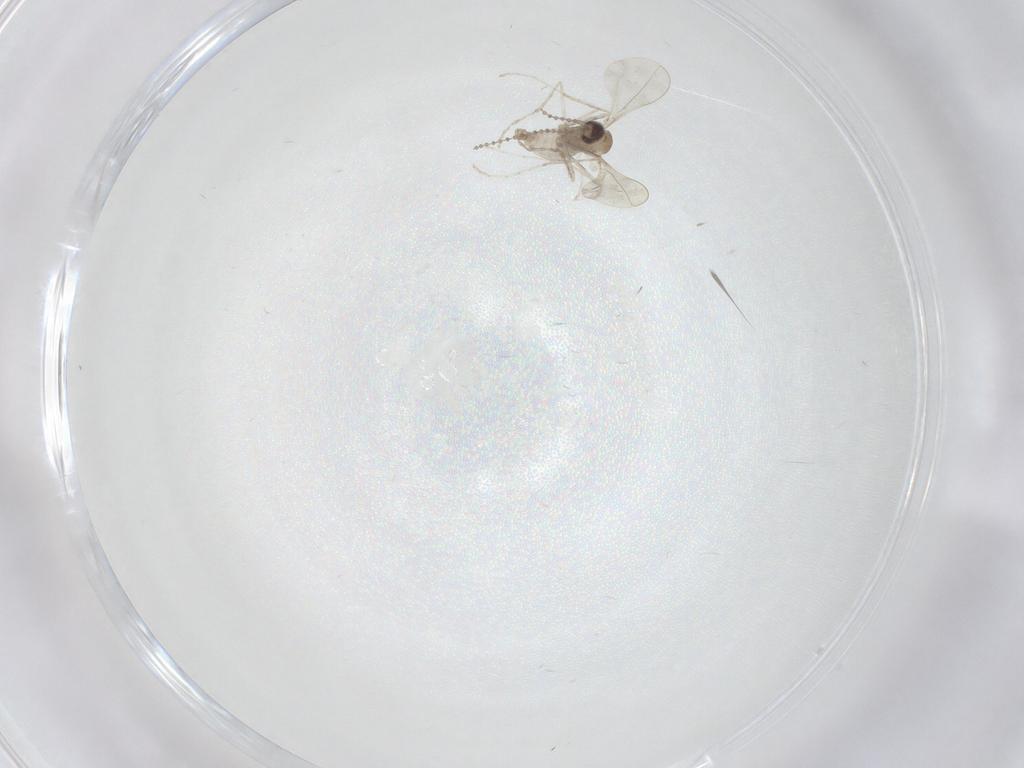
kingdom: Animalia
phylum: Arthropoda
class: Insecta
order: Diptera
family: Cecidomyiidae
